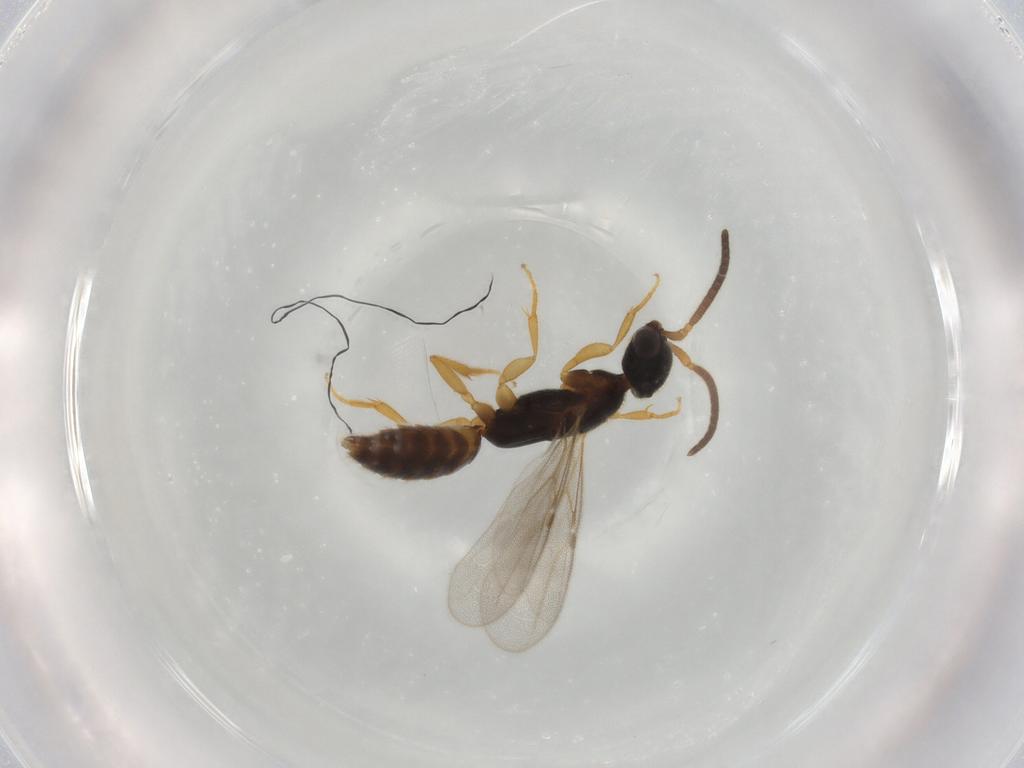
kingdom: Animalia
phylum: Arthropoda
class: Insecta
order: Hymenoptera
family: Bethylidae
